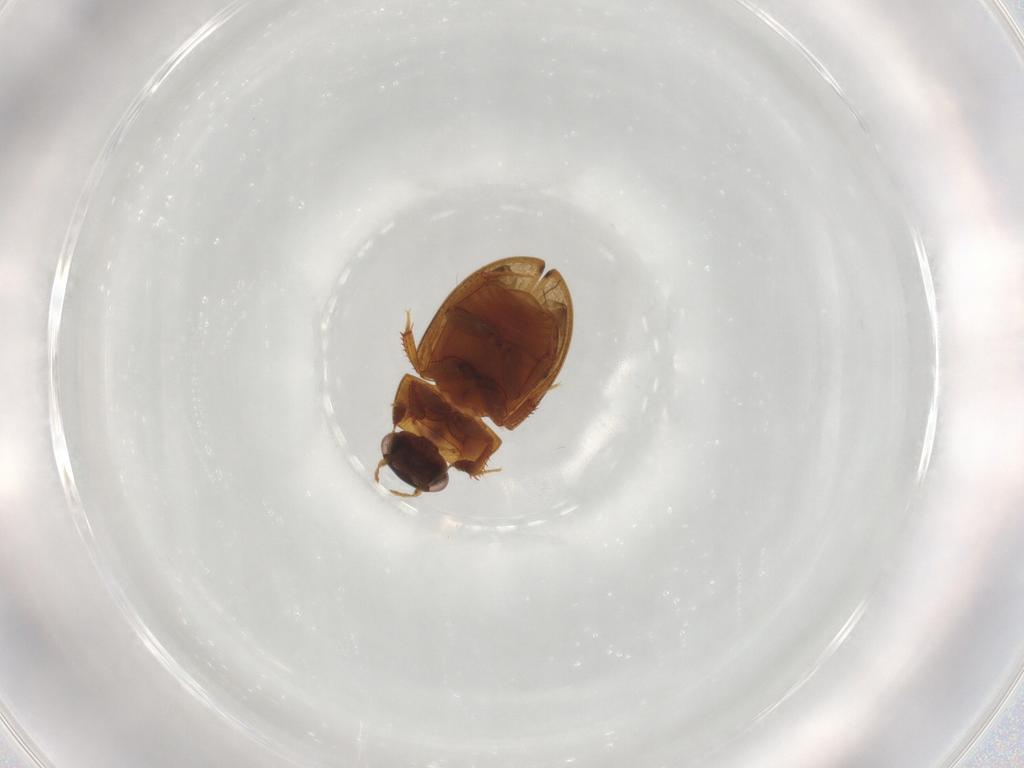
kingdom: Animalia
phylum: Arthropoda
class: Insecta
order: Coleoptera
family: Hydrophilidae
